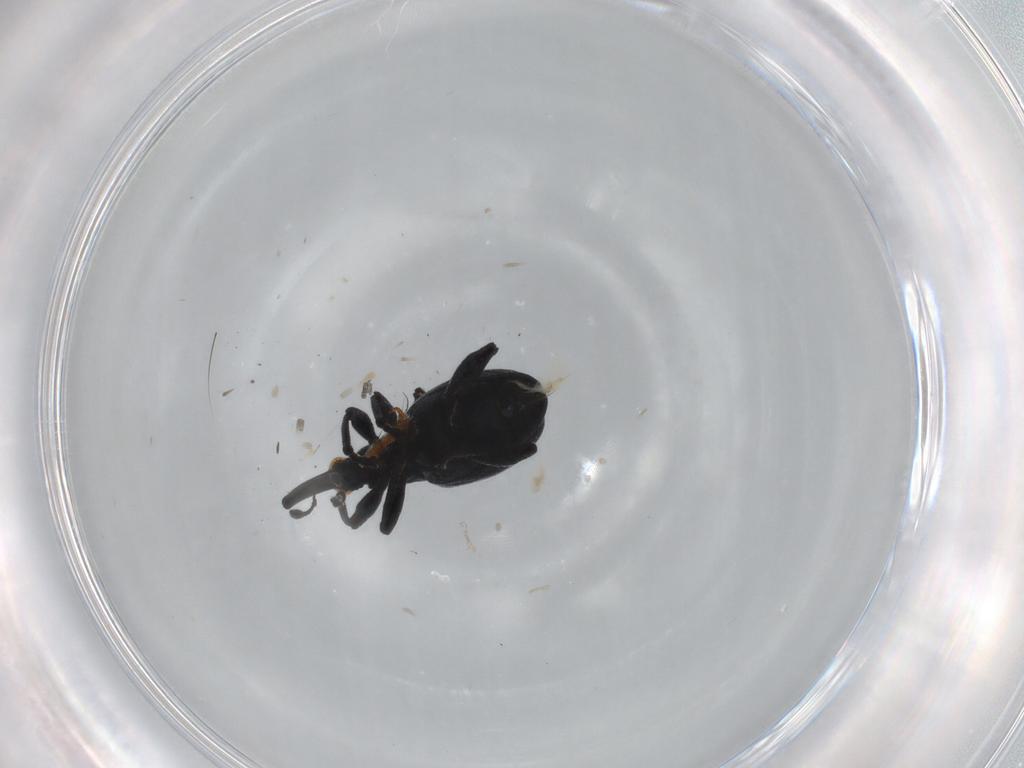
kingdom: Animalia
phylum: Arthropoda
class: Insecta
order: Coleoptera
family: Brentidae
